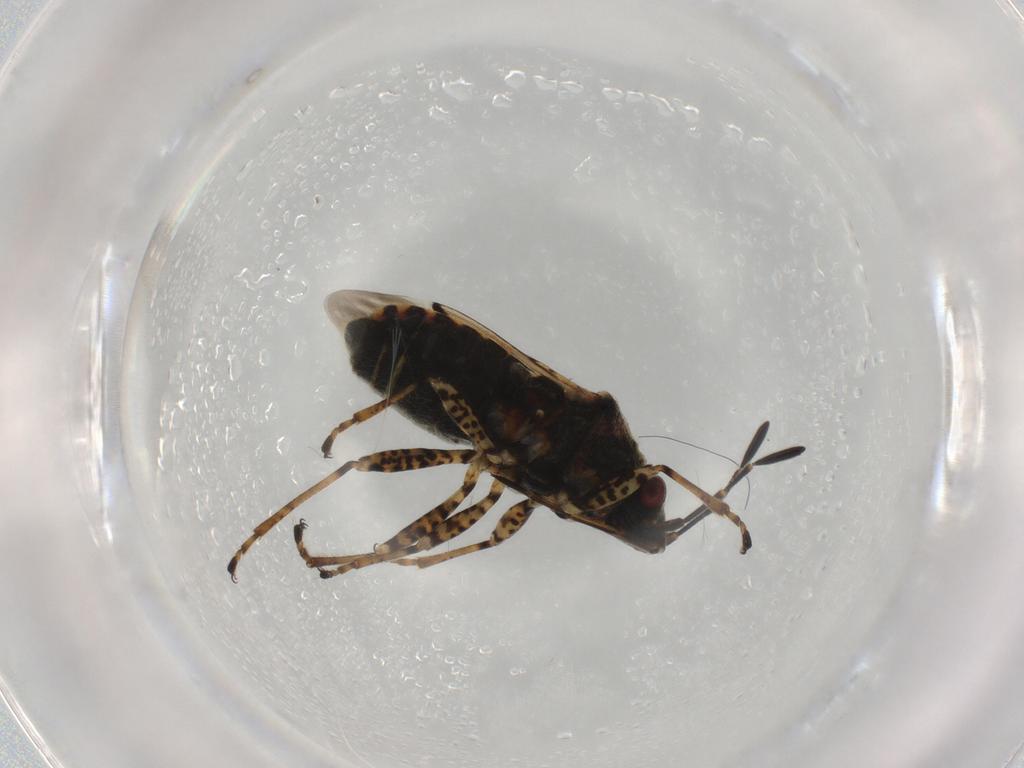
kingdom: Animalia
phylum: Arthropoda
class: Insecta
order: Hemiptera
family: Lygaeidae
